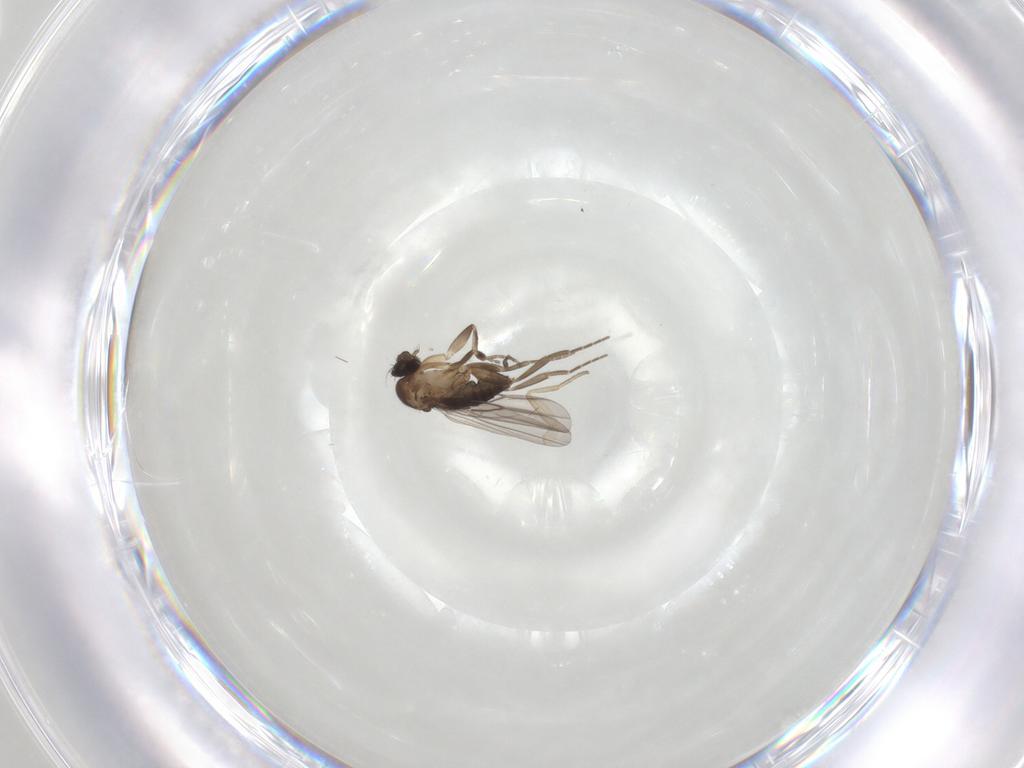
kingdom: Animalia
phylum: Arthropoda
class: Insecta
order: Diptera
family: Phoridae
